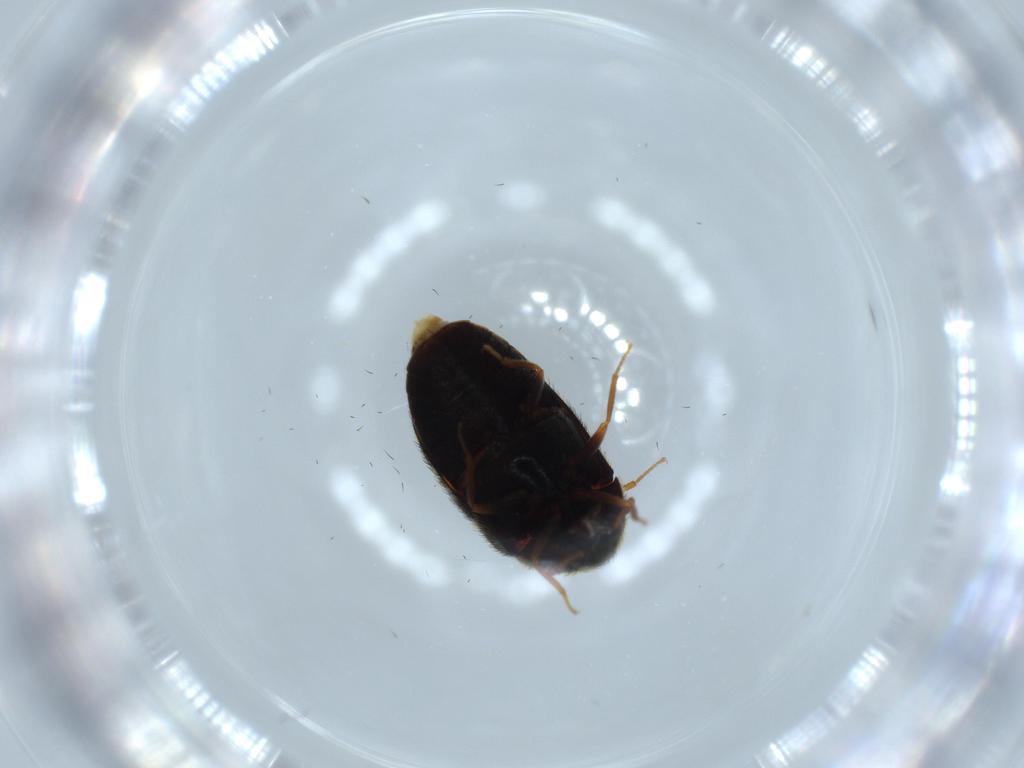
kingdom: Animalia
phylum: Arthropoda
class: Insecta
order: Coleoptera
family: Dermestidae
